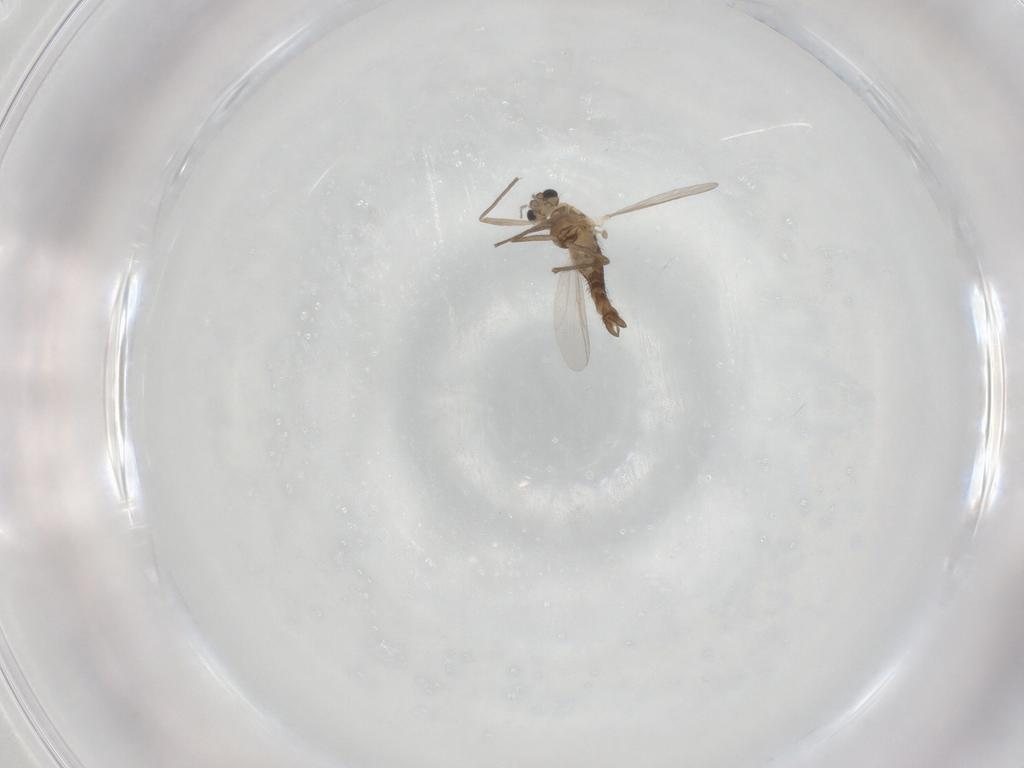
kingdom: Animalia
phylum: Arthropoda
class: Insecta
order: Diptera
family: Chironomidae
